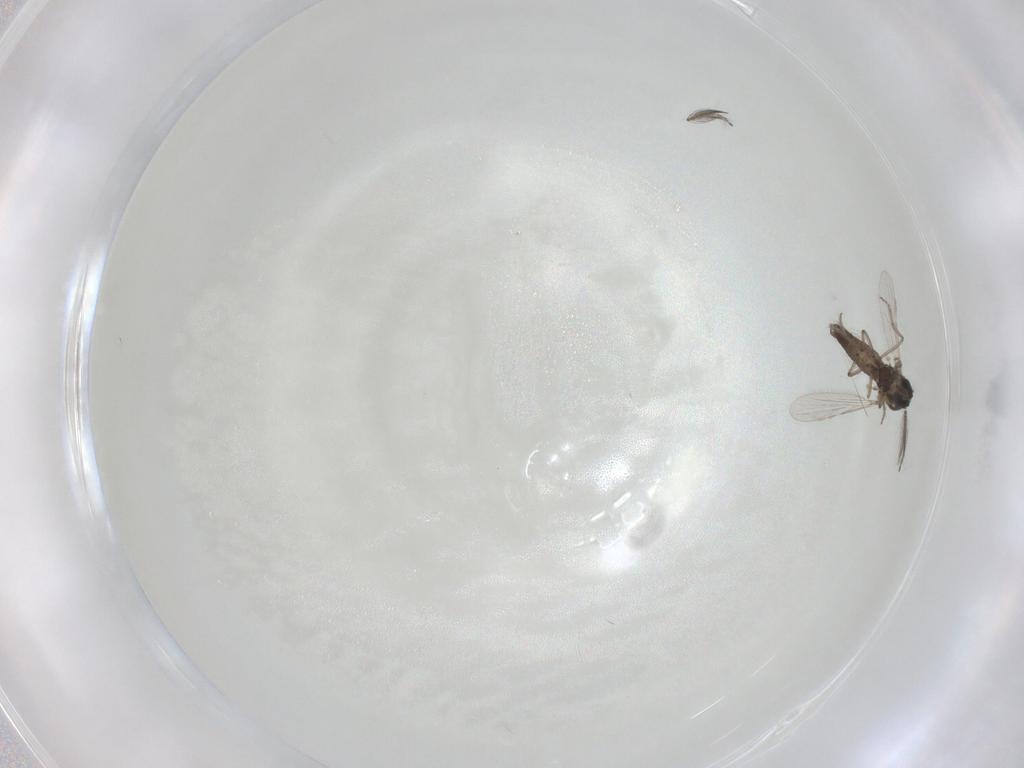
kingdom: Animalia
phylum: Arthropoda
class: Insecta
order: Diptera
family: Ceratopogonidae
